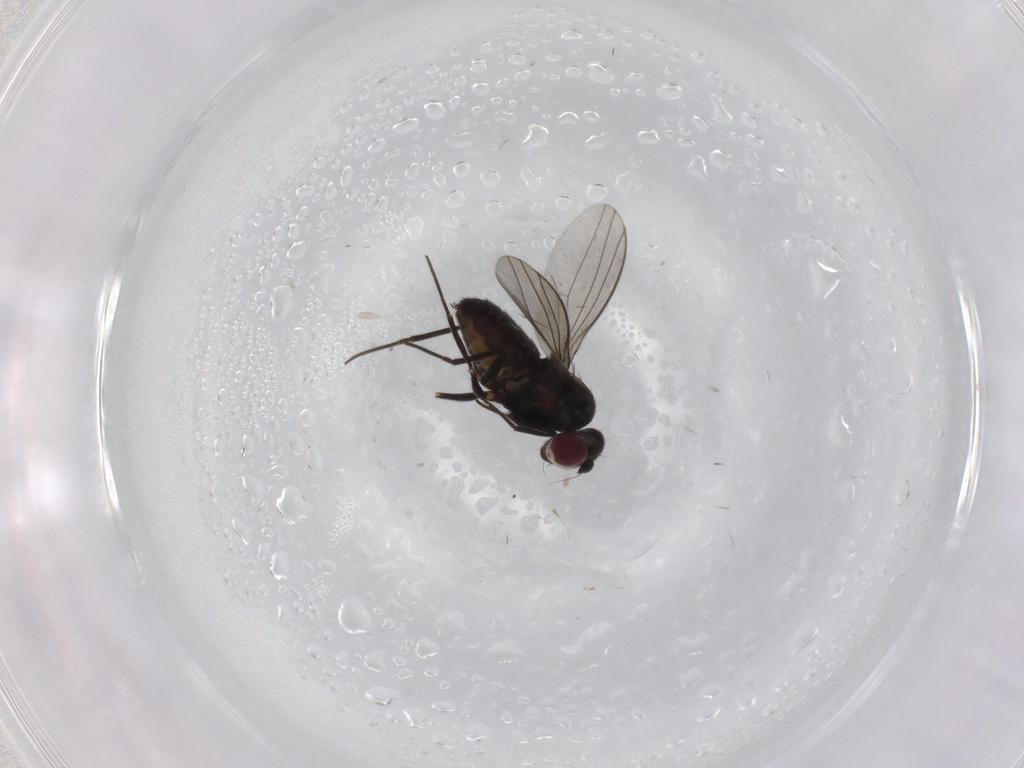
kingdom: Animalia
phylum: Arthropoda
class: Insecta
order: Diptera
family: Dolichopodidae
